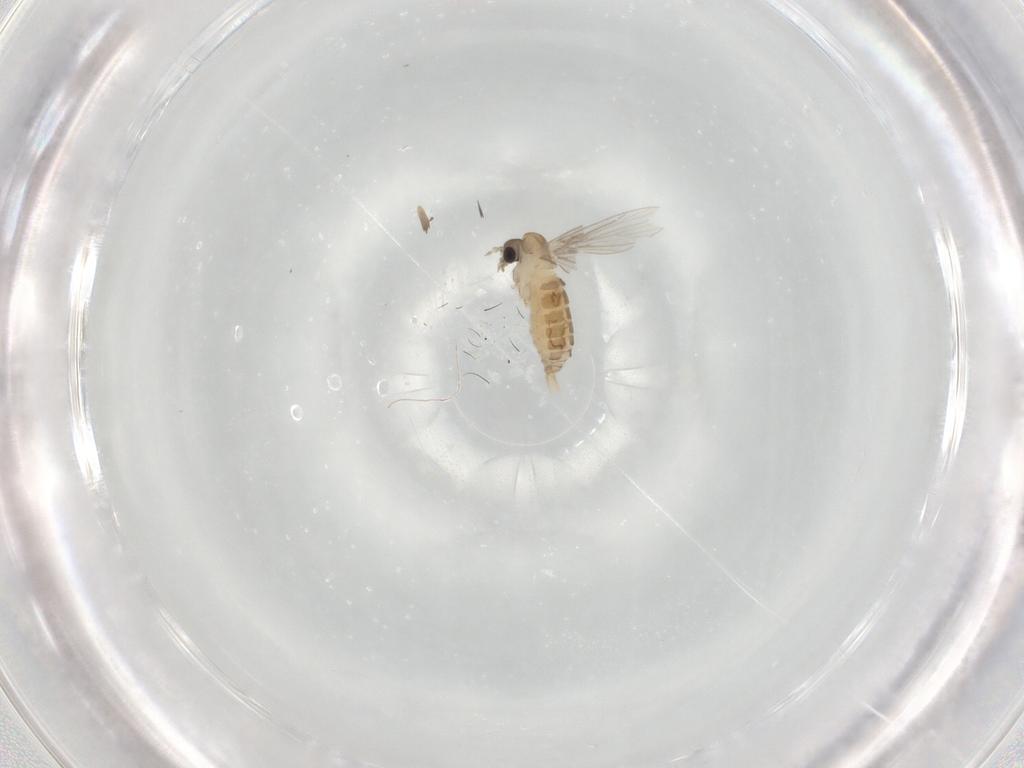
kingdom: Animalia
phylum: Arthropoda
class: Insecta
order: Diptera
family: Psychodidae
